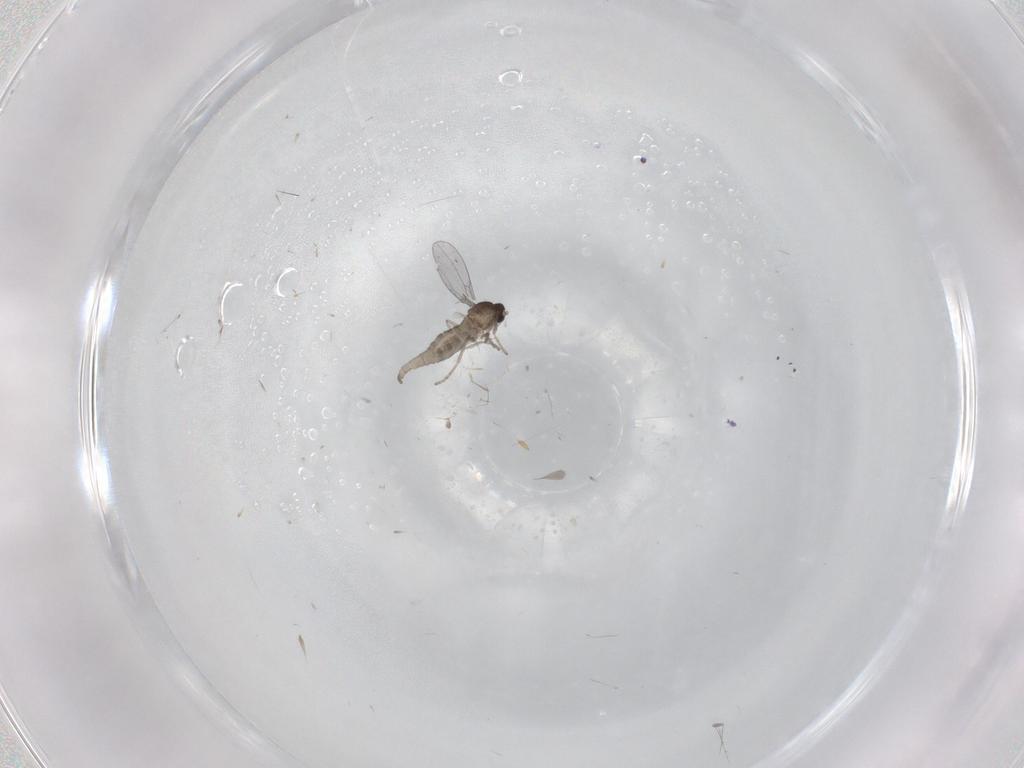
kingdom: Animalia
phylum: Arthropoda
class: Insecta
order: Diptera
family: Cecidomyiidae
